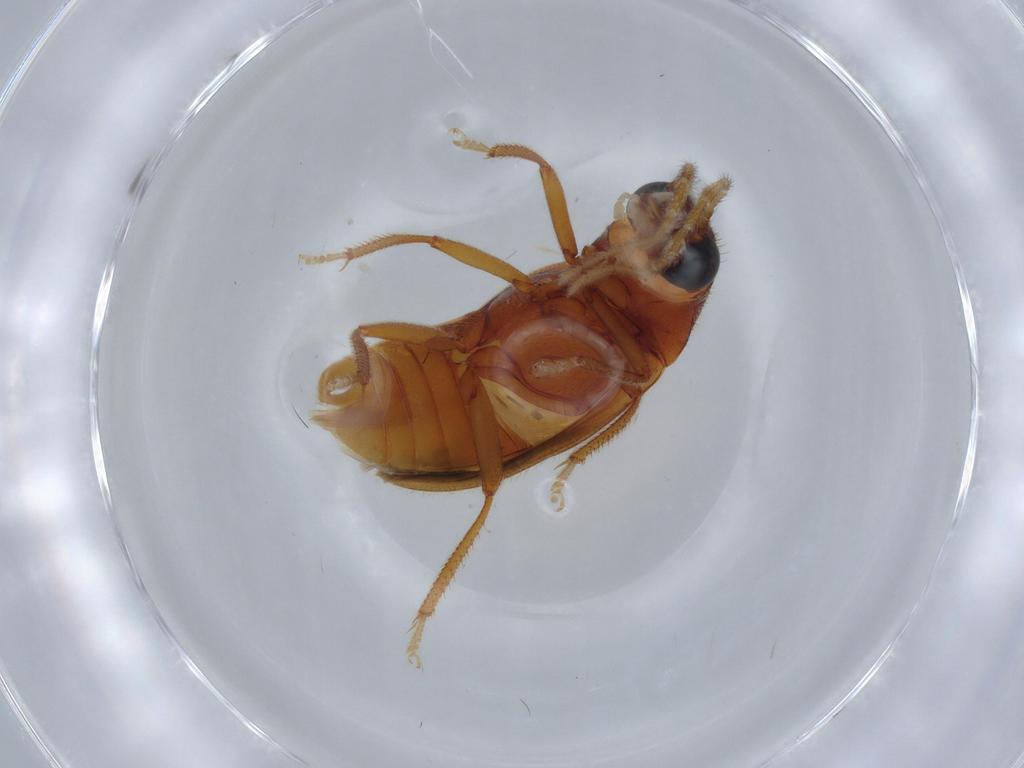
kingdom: Animalia
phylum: Arthropoda
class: Insecta
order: Coleoptera
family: Ptilodactylidae
